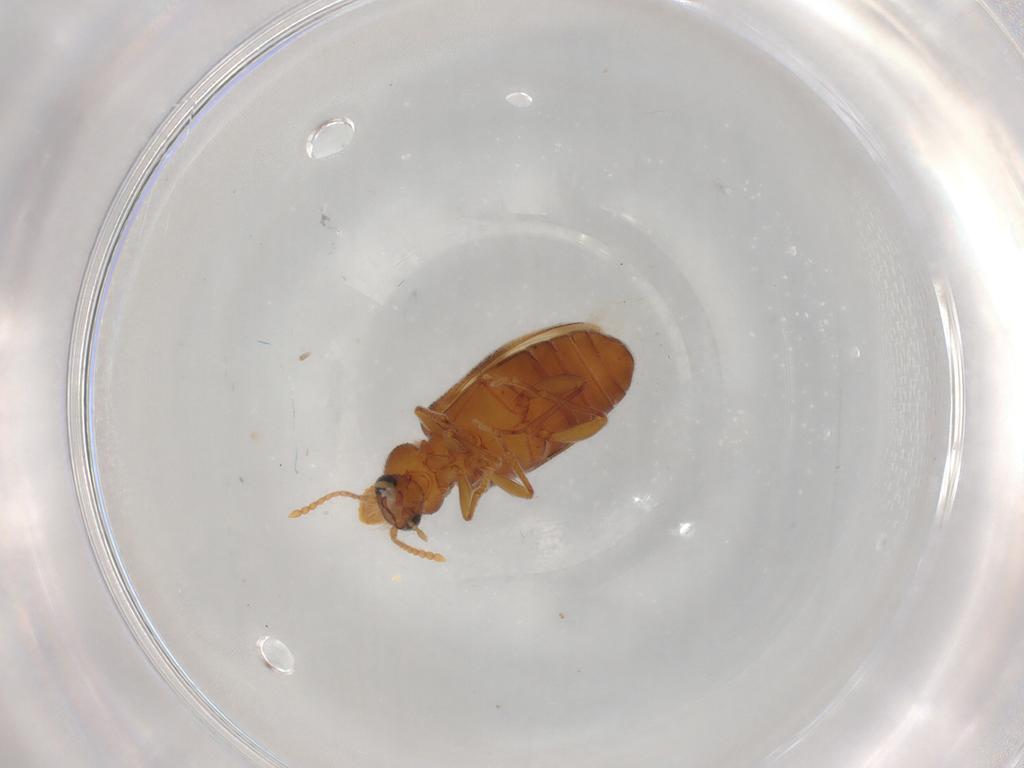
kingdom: Animalia
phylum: Arthropoda
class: Insecta
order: Coleoptera
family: Anthicidae
